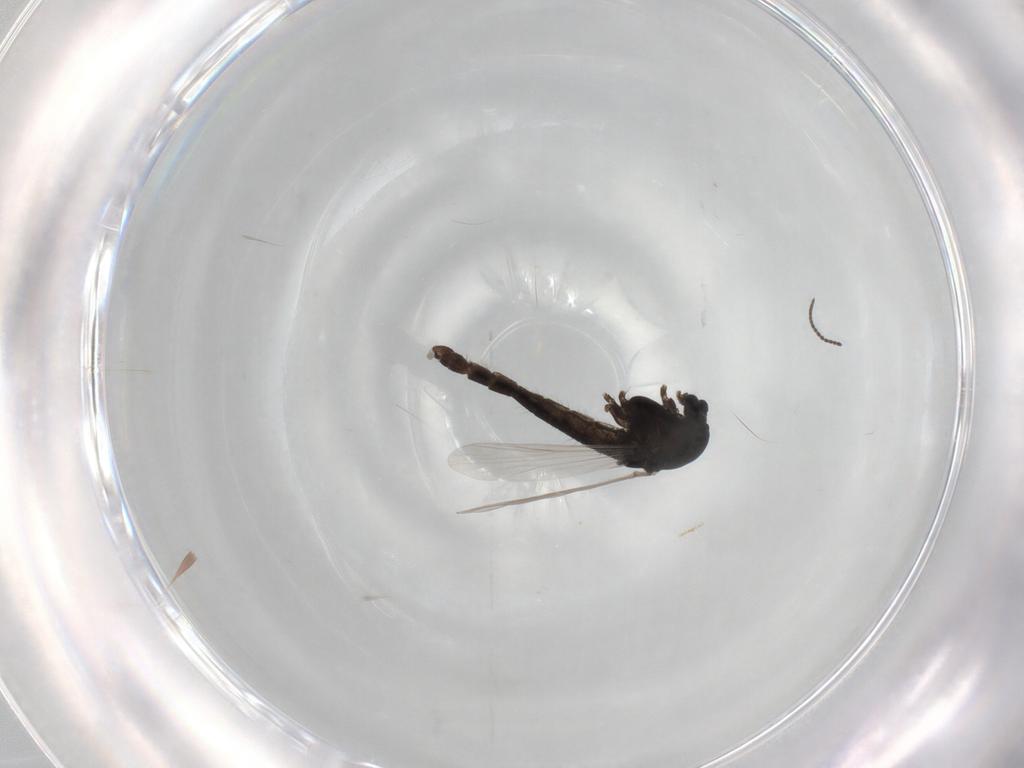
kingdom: Animalia
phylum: Arthropoda
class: Insecta
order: Diptera
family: Chironomidae
